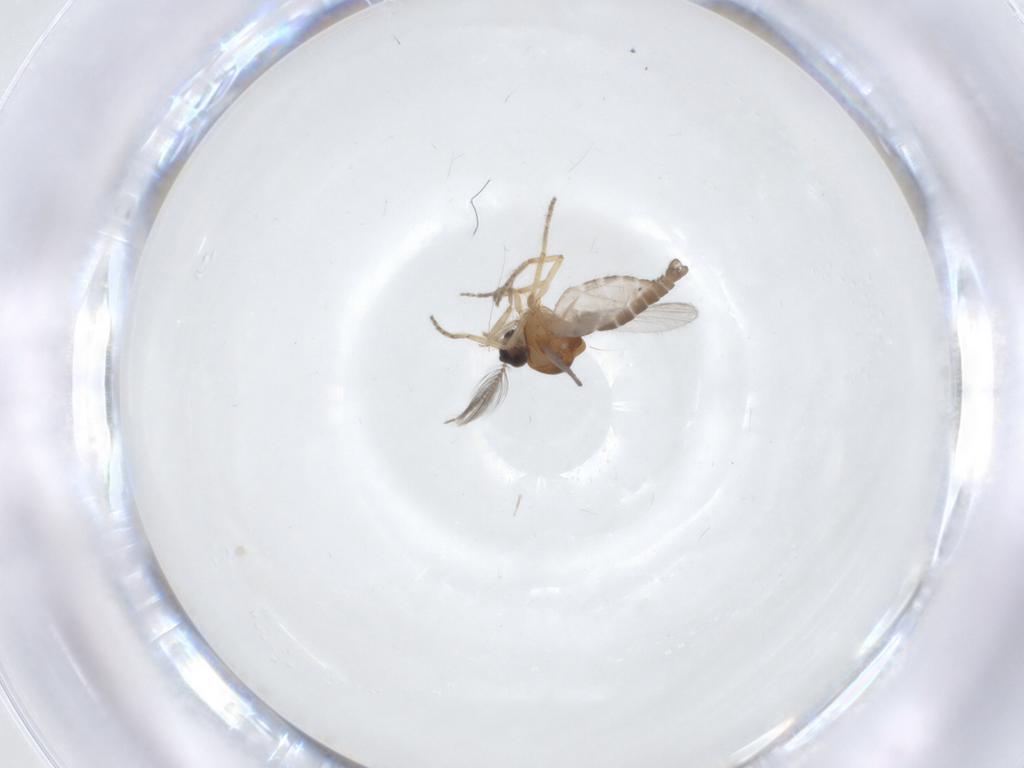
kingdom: Animalia
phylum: Arthropoda
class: Insecta
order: Diptera
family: Ceratopogonidae
